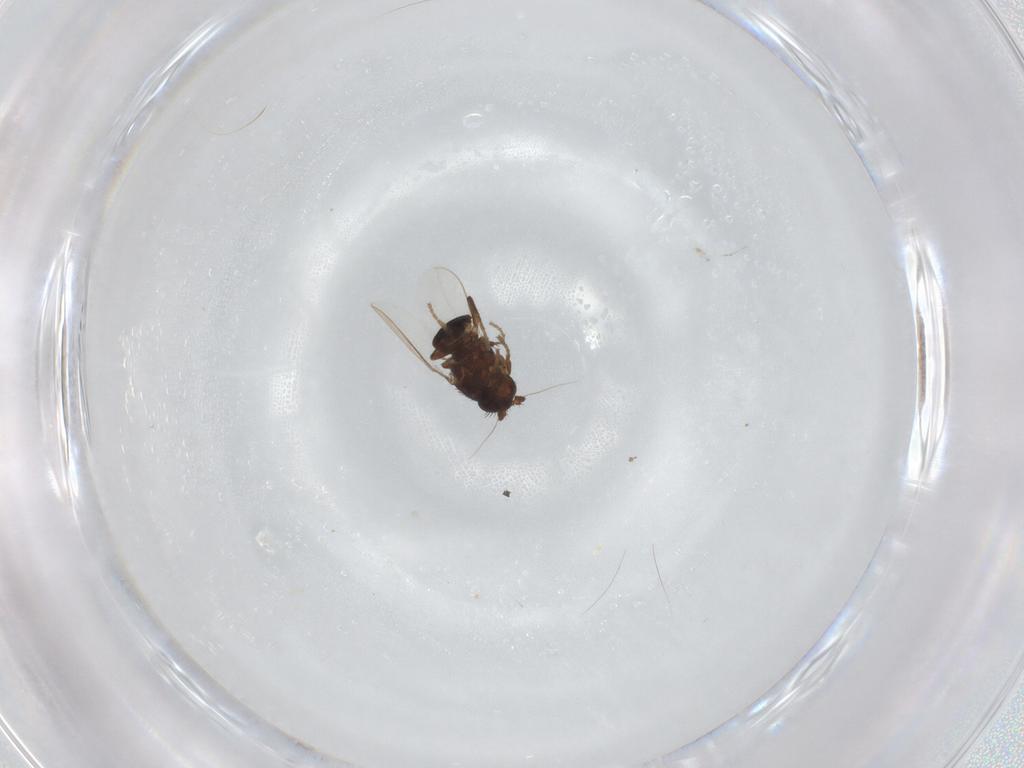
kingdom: Animalia
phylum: Arthropoda
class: Insecta
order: Diptera
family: Sphaeroceridae
